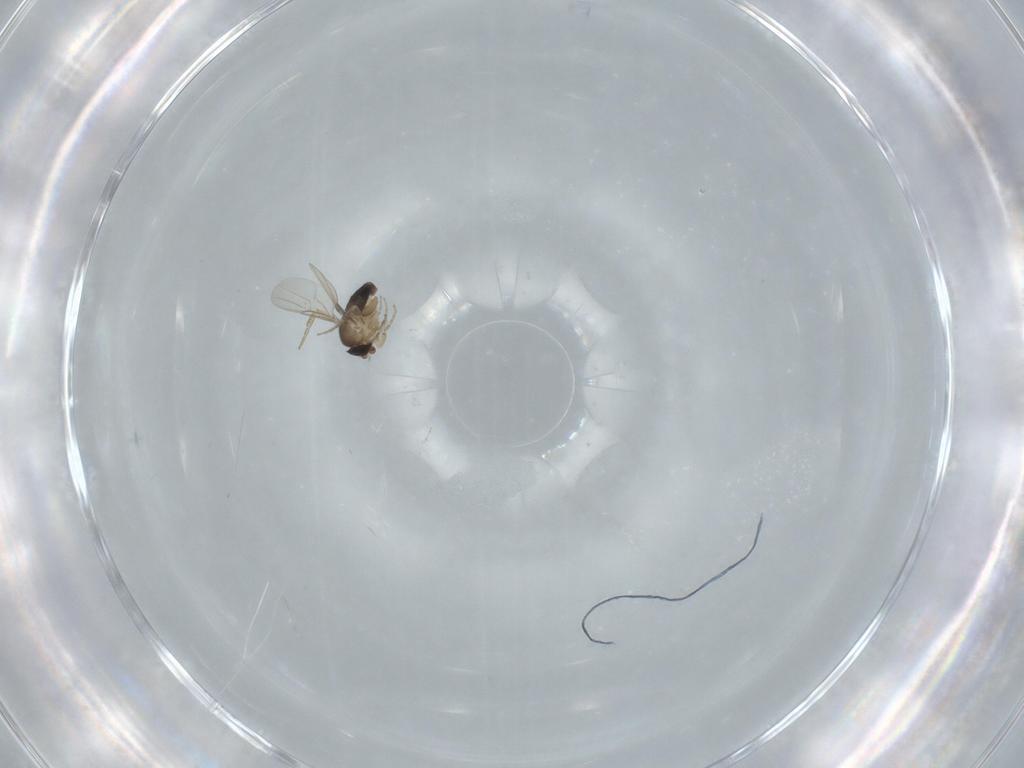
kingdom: Animalia
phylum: Arthropoda
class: Insecta
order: Diptera
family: Phoridae
